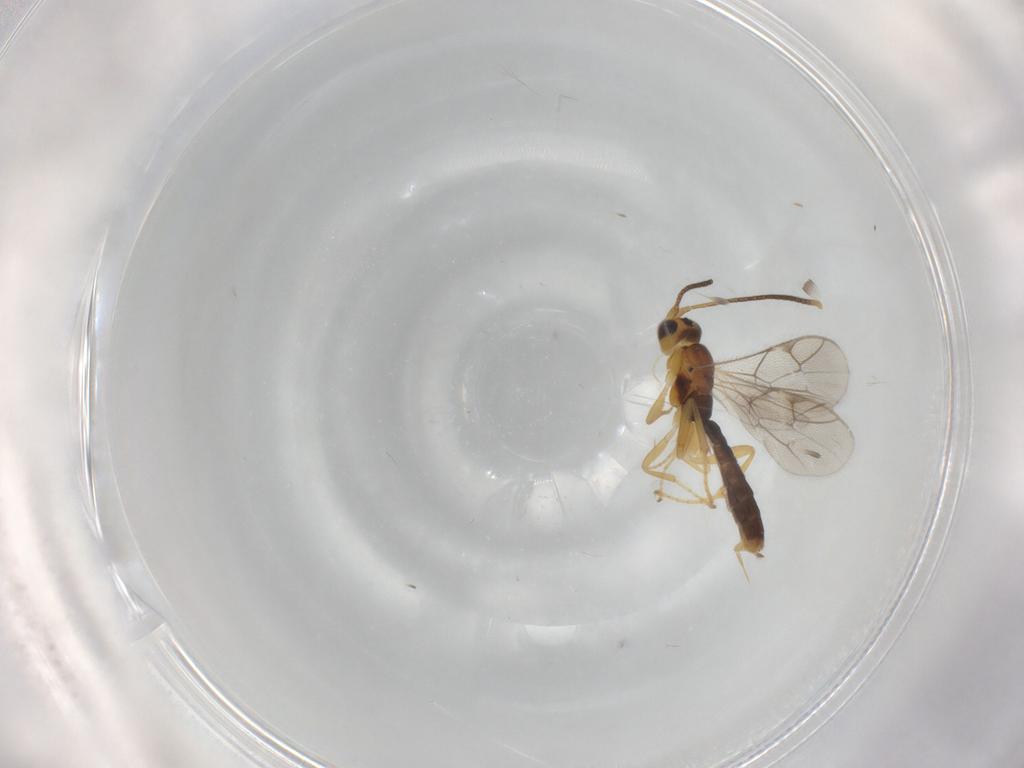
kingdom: Animalia
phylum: Arthropoda
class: Insecta
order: Hymenoptera
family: Ichneumonidae
